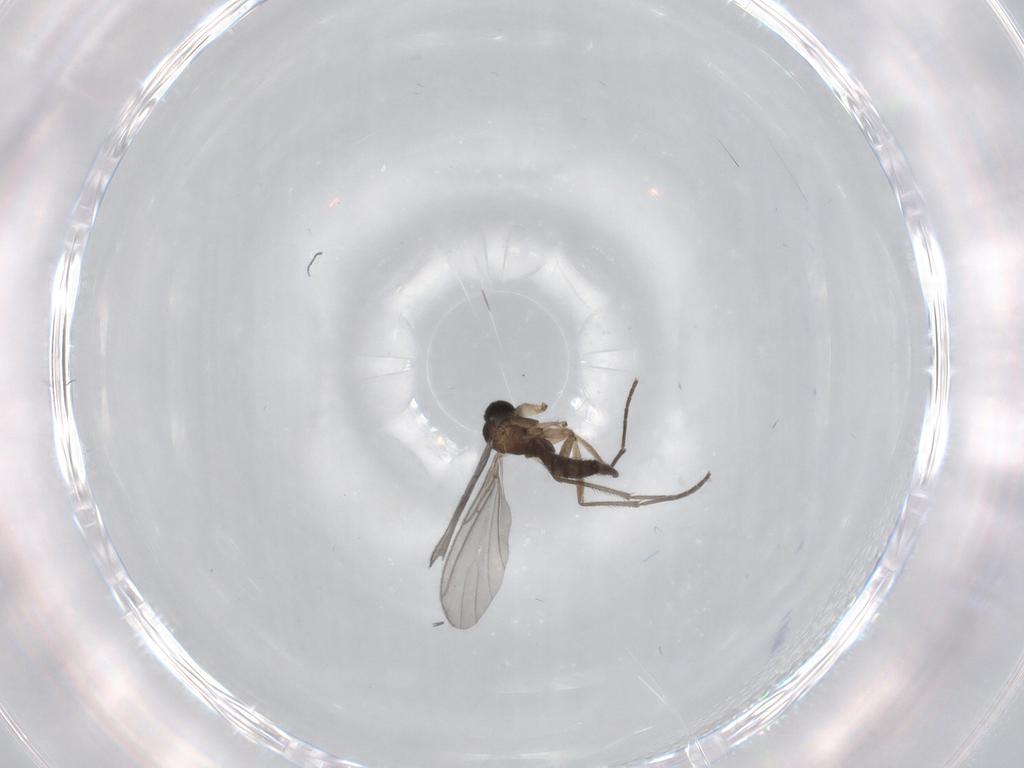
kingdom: Animalia
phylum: Arthropoda
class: Insecta
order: Diptera
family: Sciaridae
